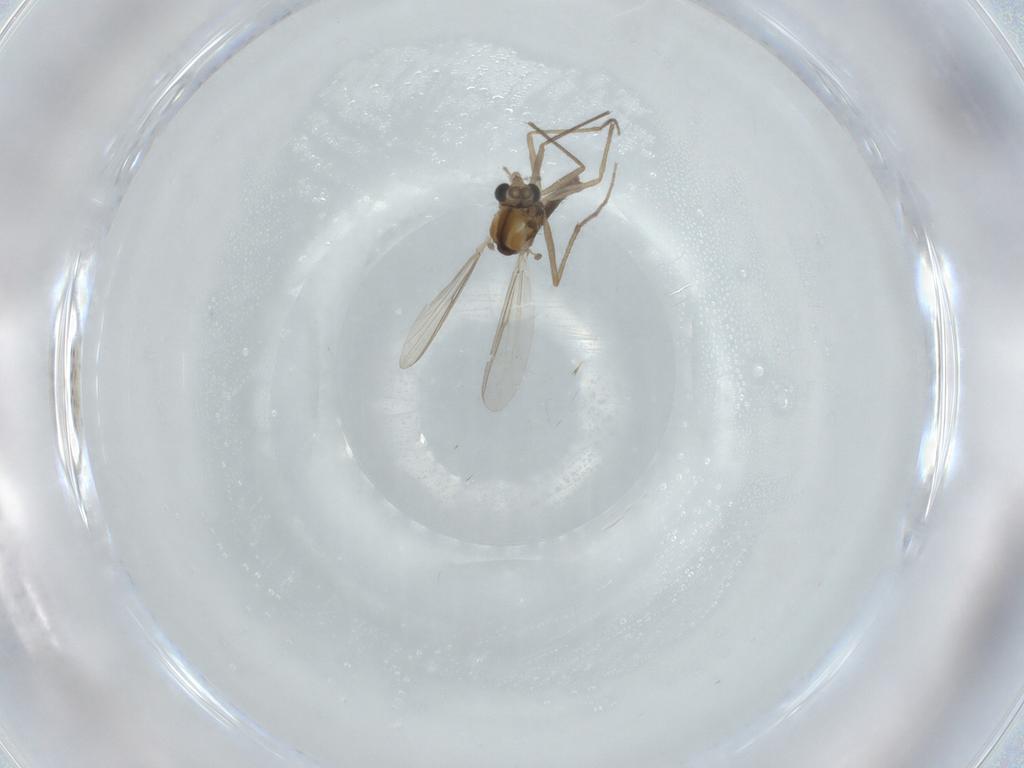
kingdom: Animalia
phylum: Arthropoda
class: Insecta
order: Diptera
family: Chironomidae
